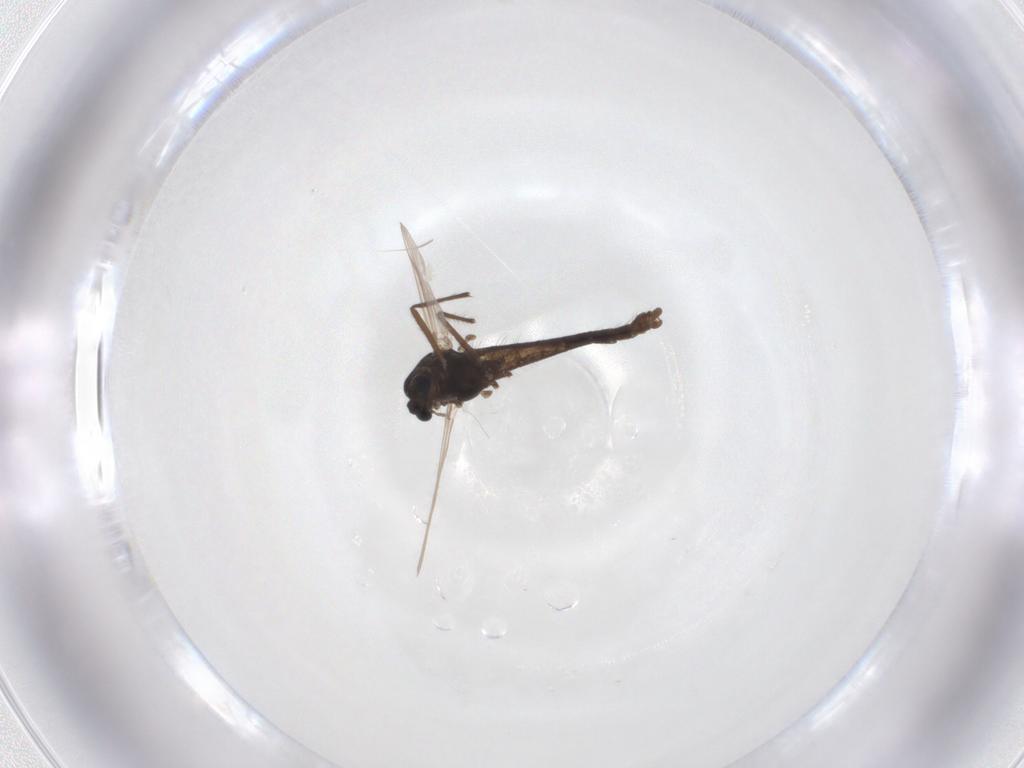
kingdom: Animalia
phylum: Arthropoda
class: Insecta
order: Diptera
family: Chironomidae
